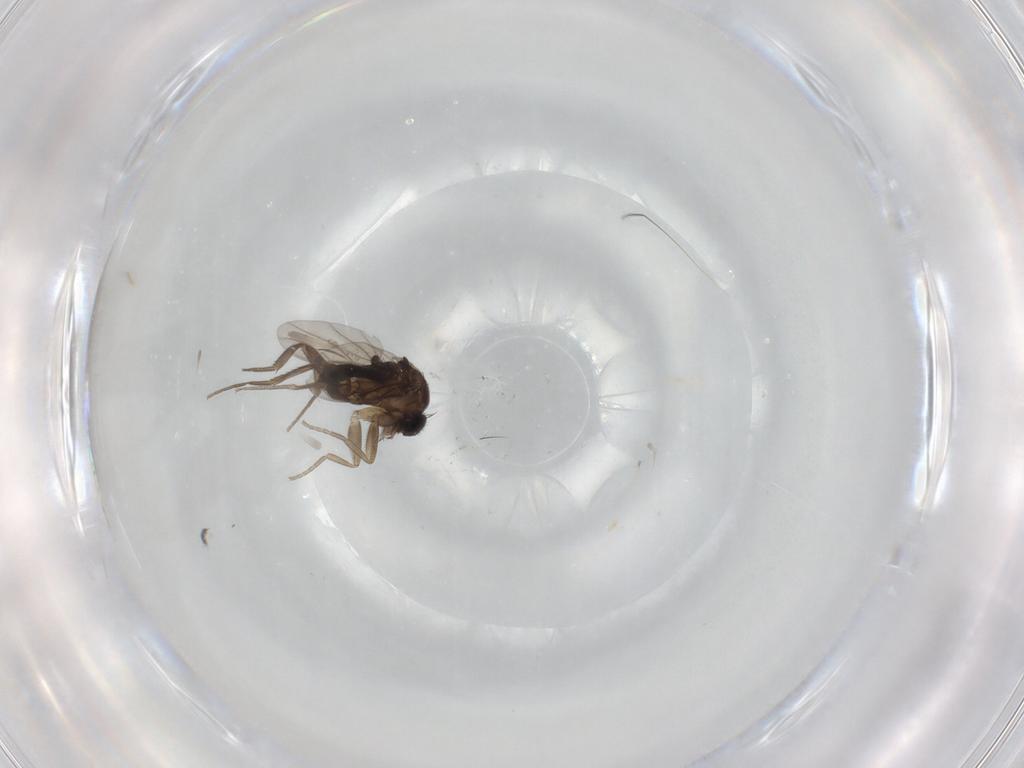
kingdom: Animalia
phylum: Arthropoda
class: Insecta
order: Diptera
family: Phoridae
